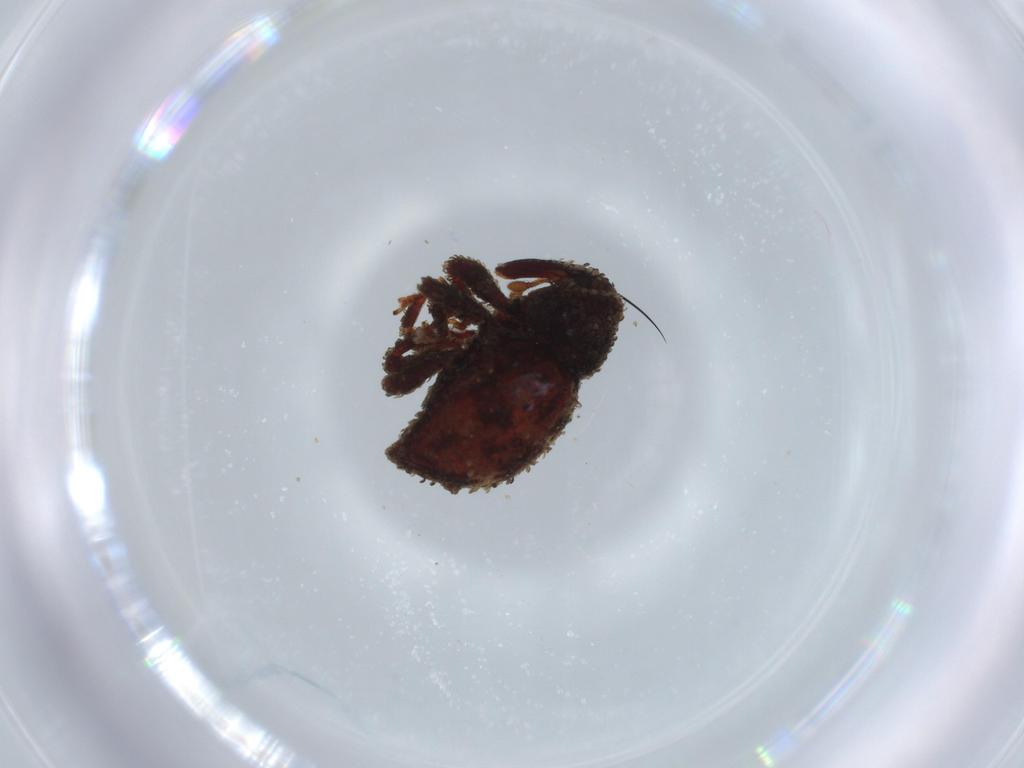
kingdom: Animalia
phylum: Arthropoda
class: Insecta
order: Coleoptera
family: Curculionidae
